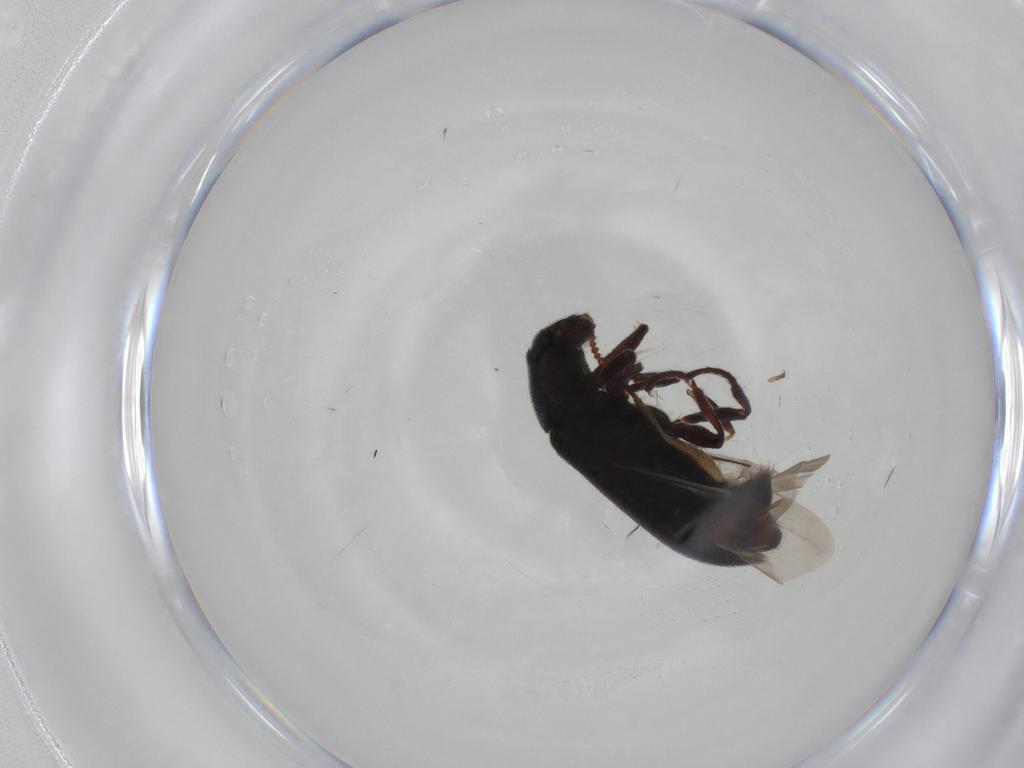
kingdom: Animalia
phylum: Arthropoda
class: Insecta
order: Coleoptera
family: Melyridae
